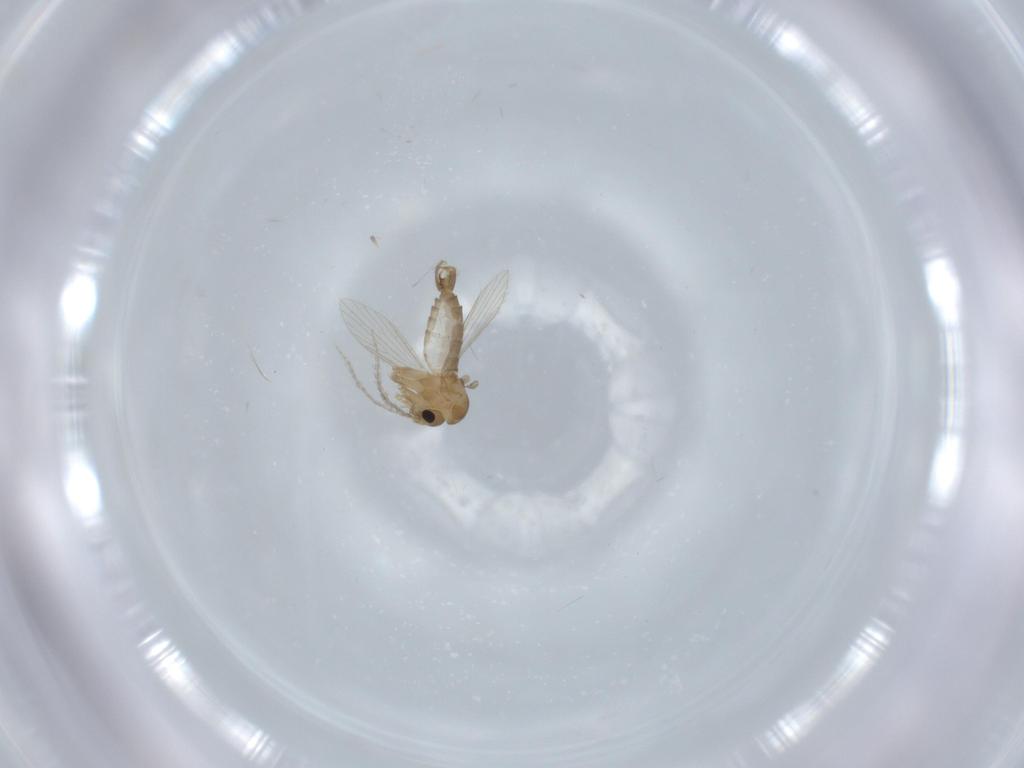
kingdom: Animalia
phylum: Arthropoda
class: Insecta
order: Diptera
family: Psychodidae
